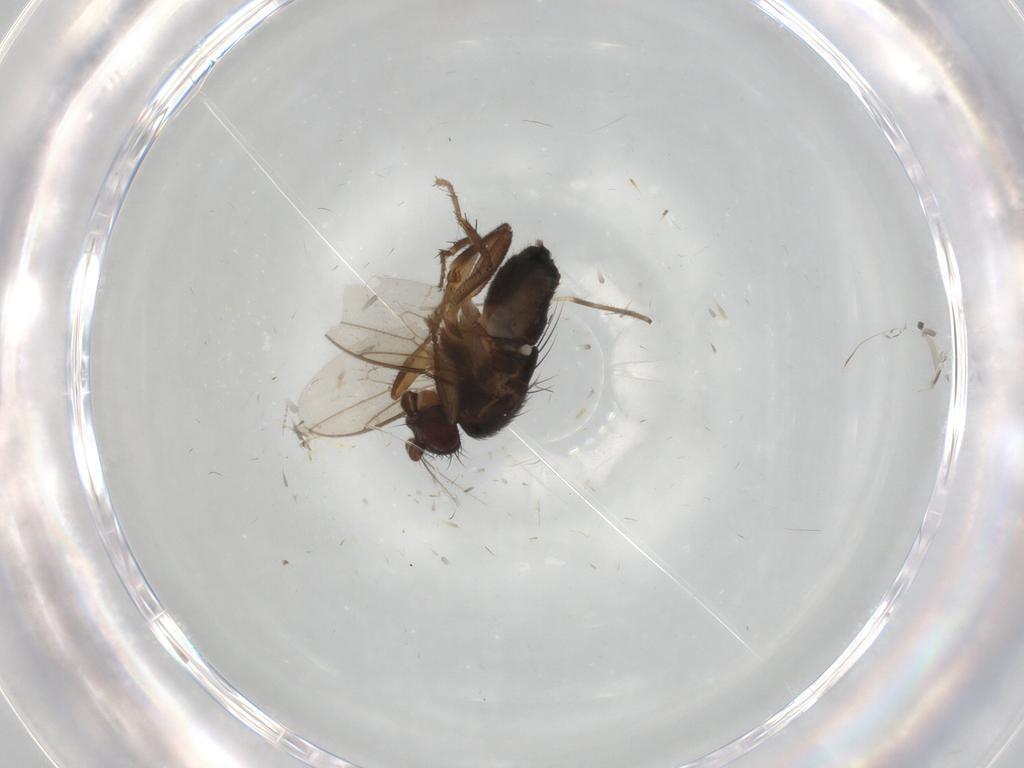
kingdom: Animalia
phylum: Arthropoda
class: Insecta
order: Diptera
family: Sphaeroceridae
